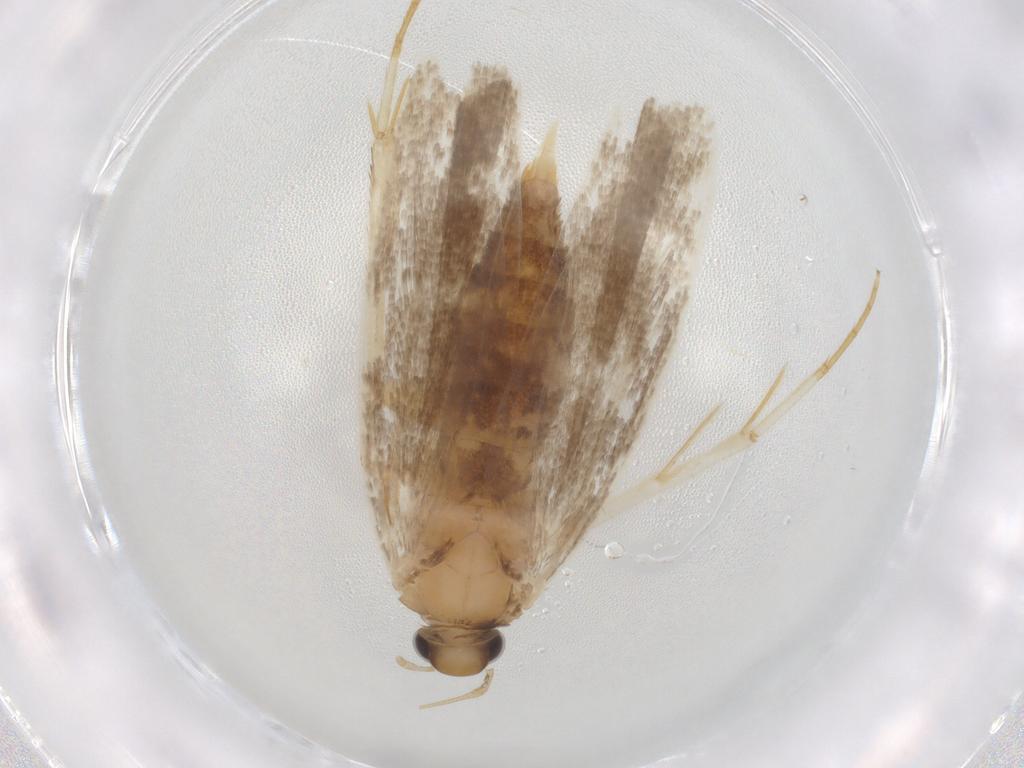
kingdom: Animalia
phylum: Arthropoda
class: Insecta
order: Lepidoptera
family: Gelechiidae
